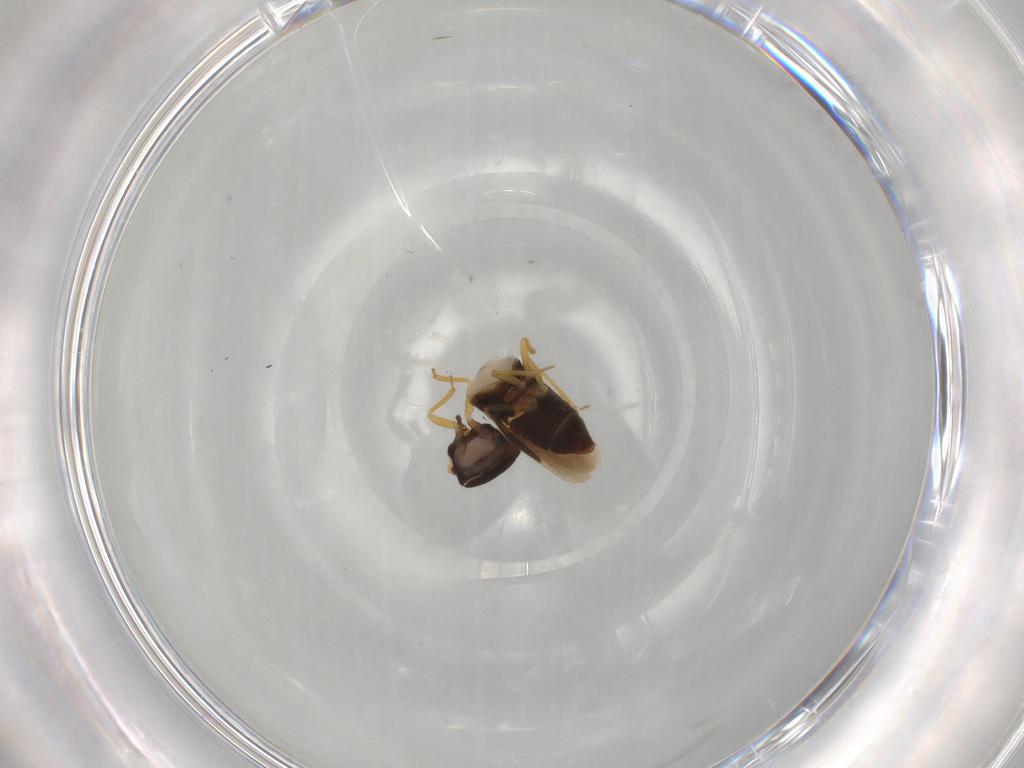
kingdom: Animalia
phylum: Arthropoda
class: Insecta
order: Hemiptera
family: Schizopteridae
